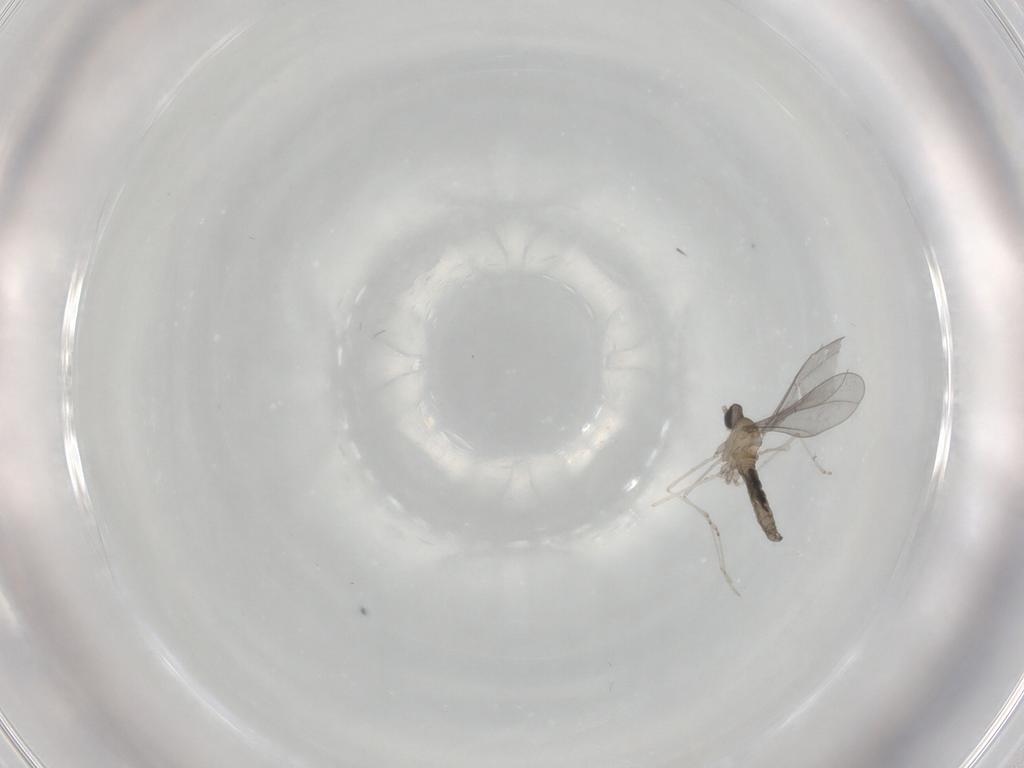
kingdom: Animalia
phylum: Arthropoda
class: Insecta
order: Diptera
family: Cecidomyiidae
